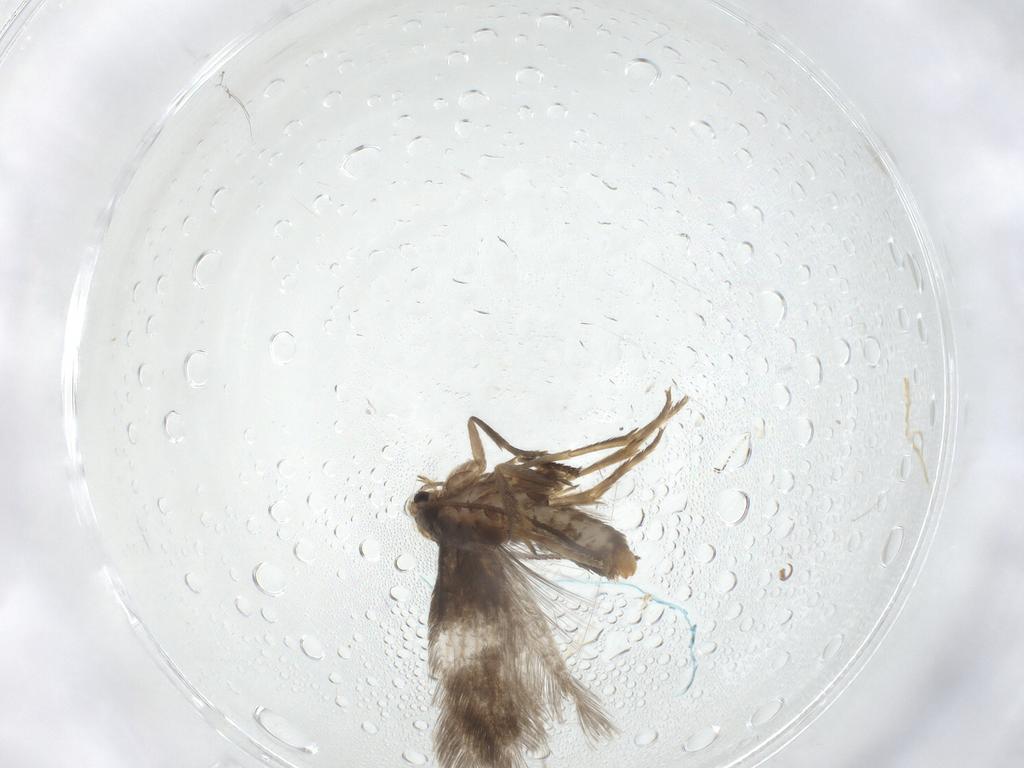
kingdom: Animalia
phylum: Arthropoda
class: Insecta
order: Lepidoptera
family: Nepticulidae
